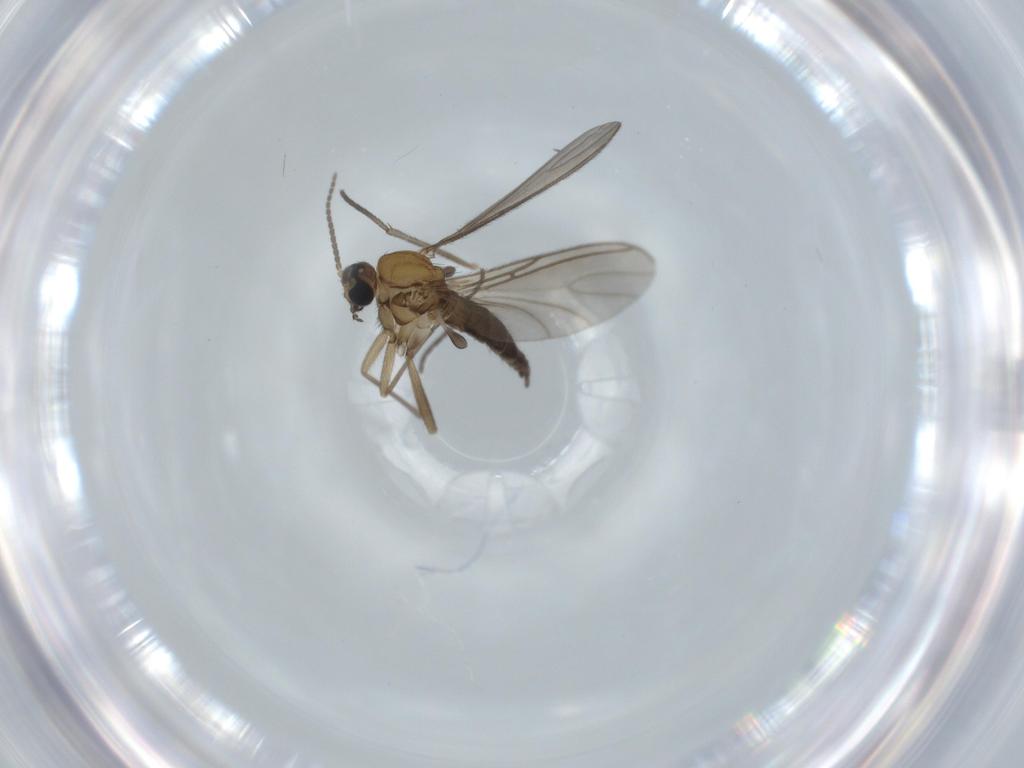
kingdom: Animalia
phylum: Arthropoda
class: Insecta
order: Diptera
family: Sciaridae
